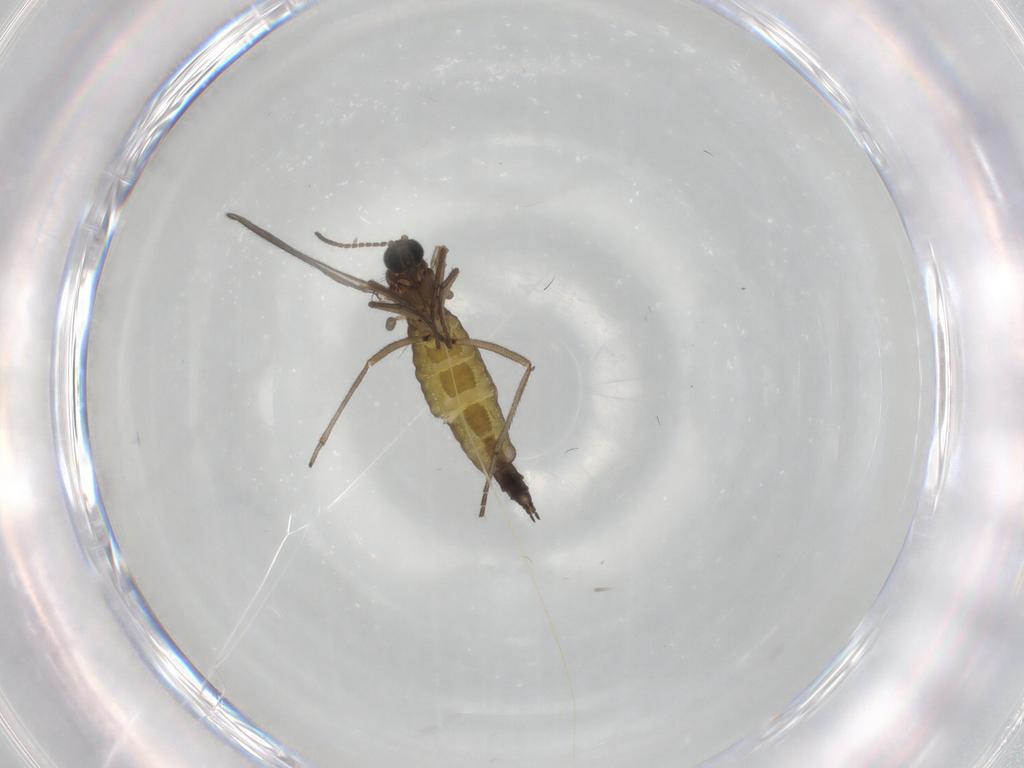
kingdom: Animalia
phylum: Arthropoda
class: Insecta
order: Diptera
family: Sciaridae
